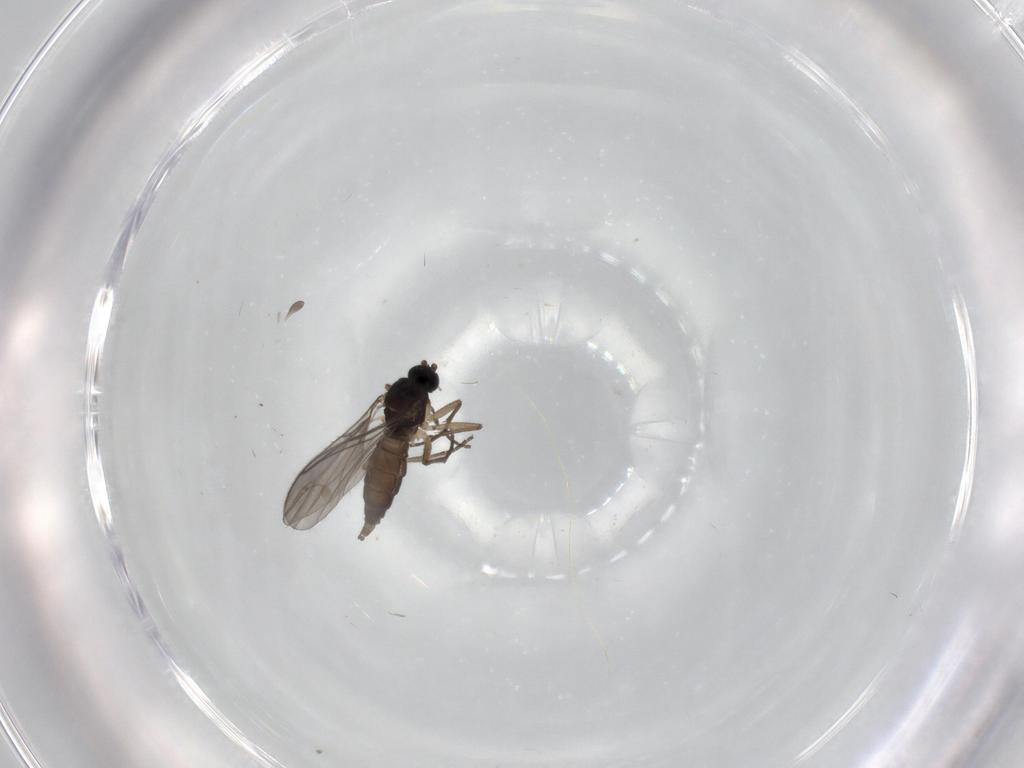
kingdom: Animalia
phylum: Arthropoda
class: Insecta
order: Diptera
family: Sciaridae
